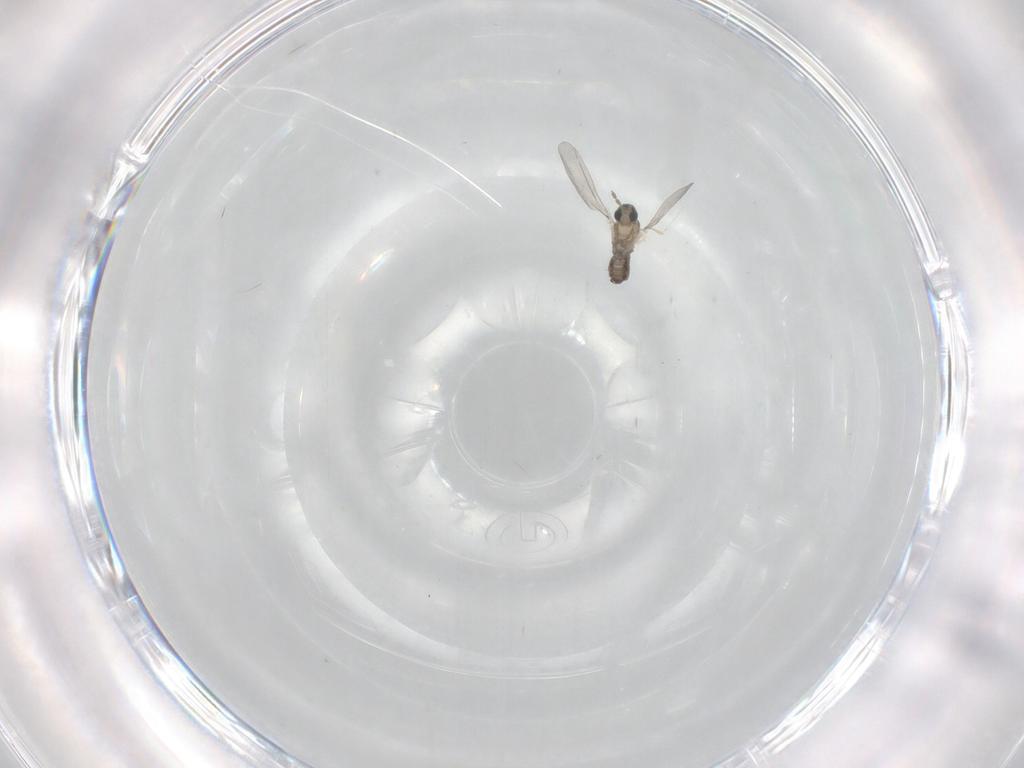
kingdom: Animalia
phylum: Arthropoda
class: Insecta
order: Diptera
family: Cecidomyiidae
